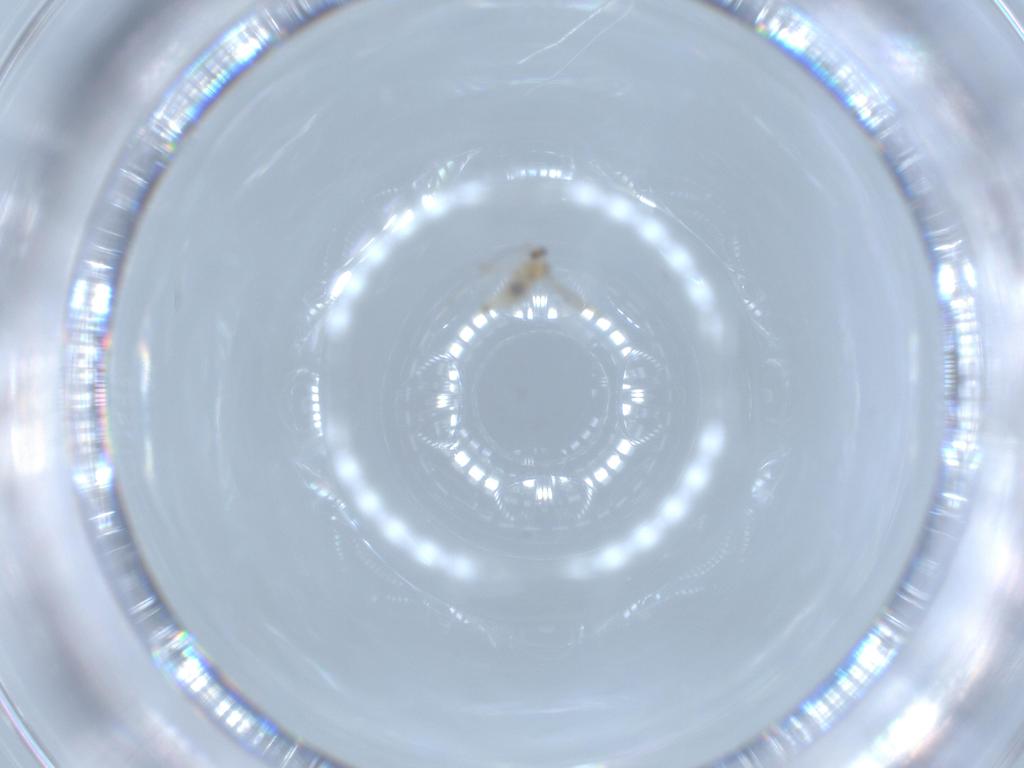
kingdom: Animalia
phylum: Arthropoda
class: Insecta
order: Diptera
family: Cecidomyiidae
